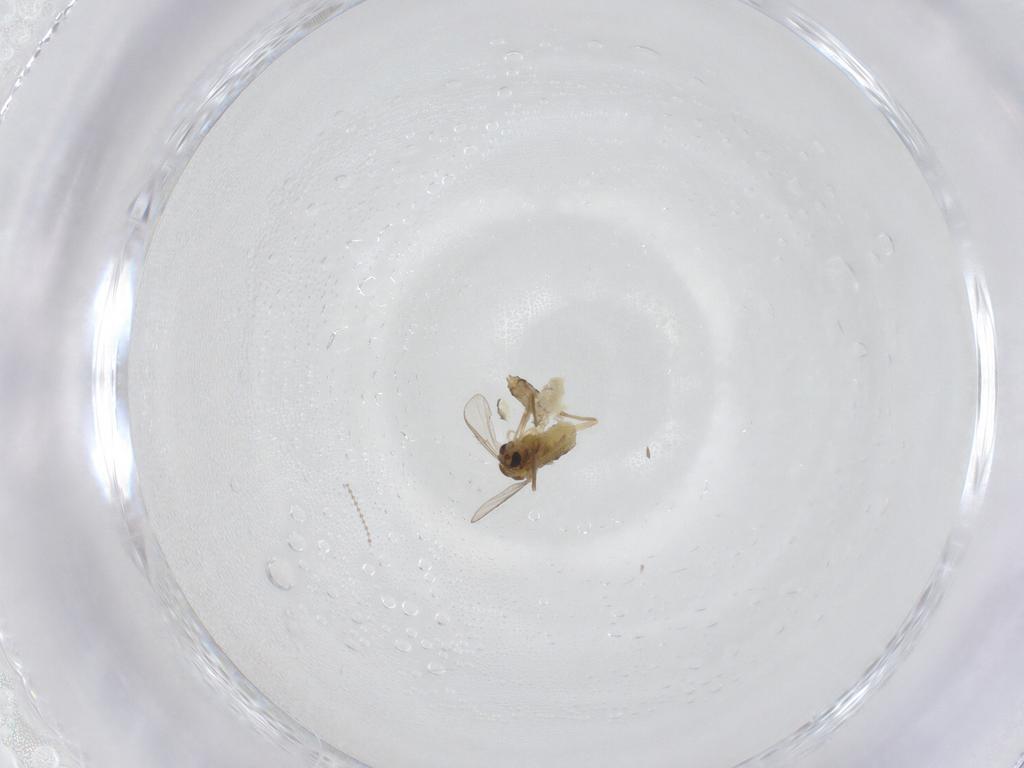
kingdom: Animalia
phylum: Arthropoda
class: Insecta
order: Diptera
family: Chironomidae
